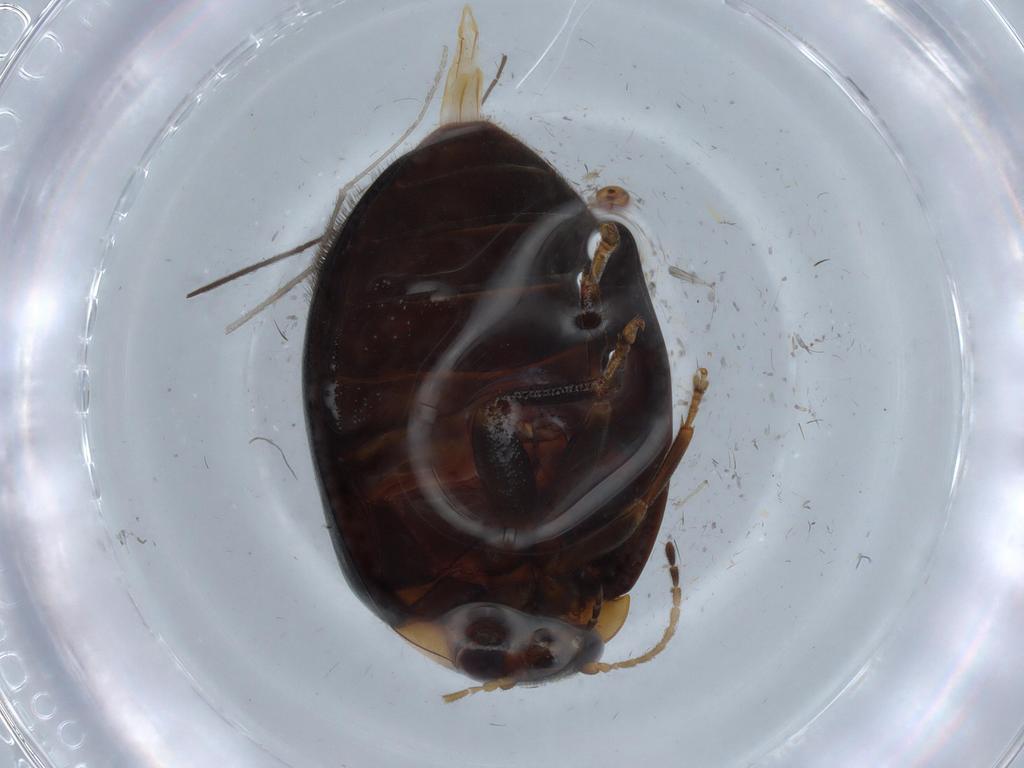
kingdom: Animalia
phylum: Arthropoda
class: Insecta
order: Coleoptera
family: Scirtidae
